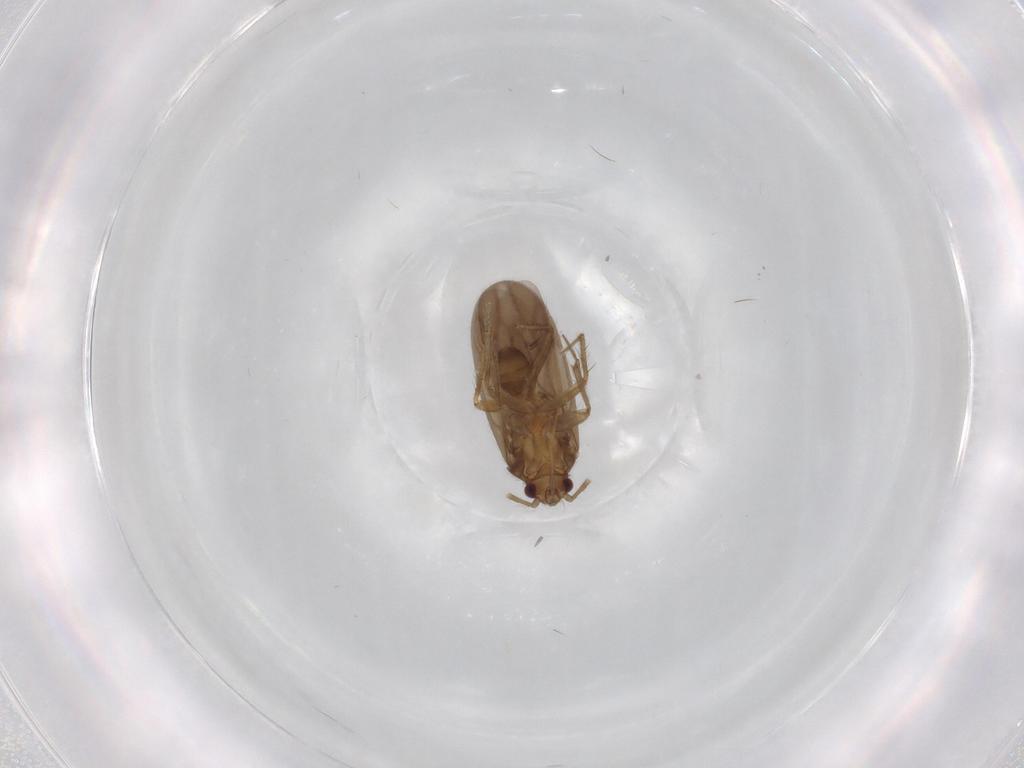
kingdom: Animalia
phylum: Arthropoda
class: Insecta
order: Hemiptera
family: Ceratocombidae
